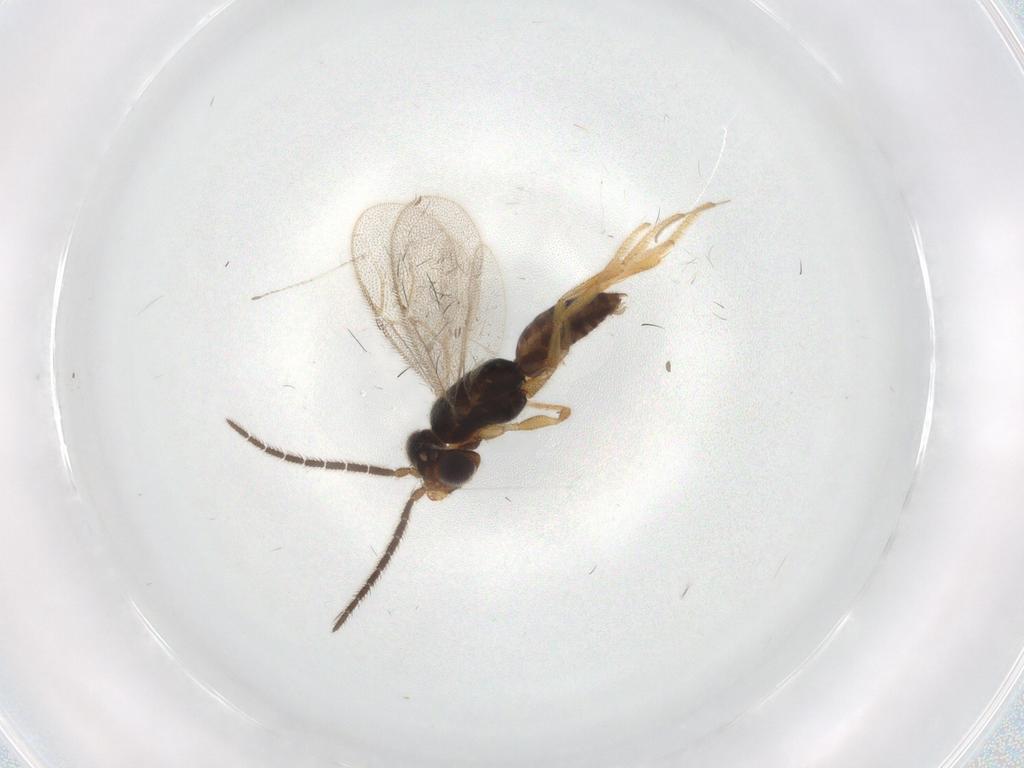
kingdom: Animalia
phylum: Arthropoda
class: Insecta
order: Hymenoptera
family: Dryinidae
